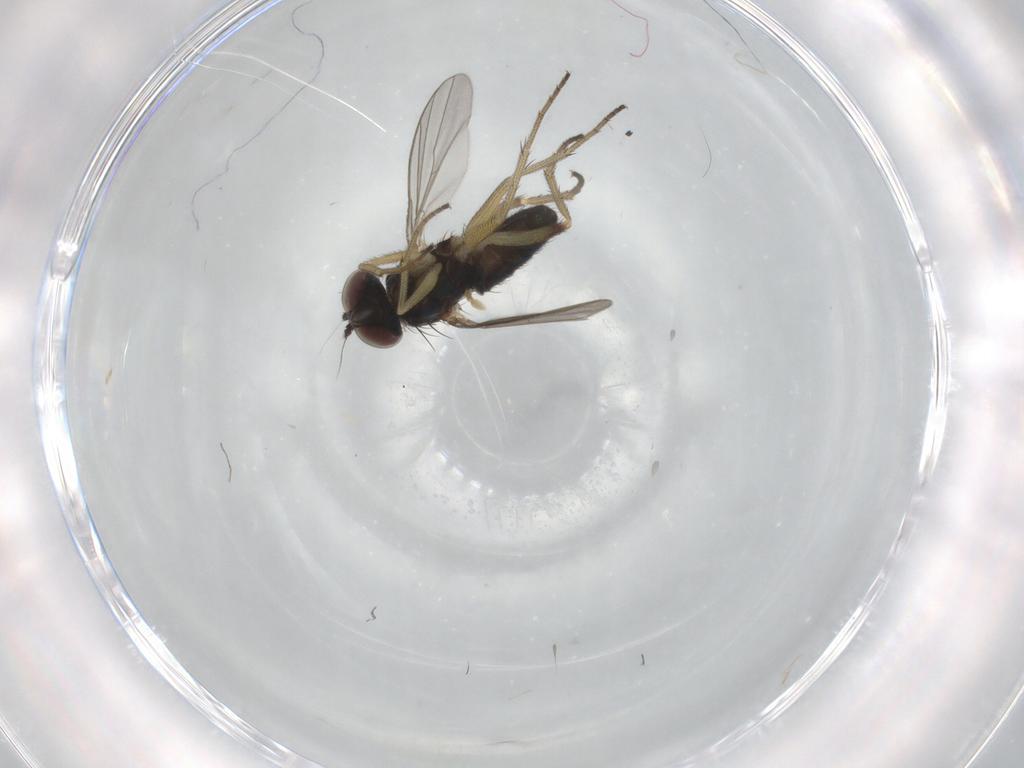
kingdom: Animalia
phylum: Arthropoda
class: Insecta
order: Diptera
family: Dolichopodidae
